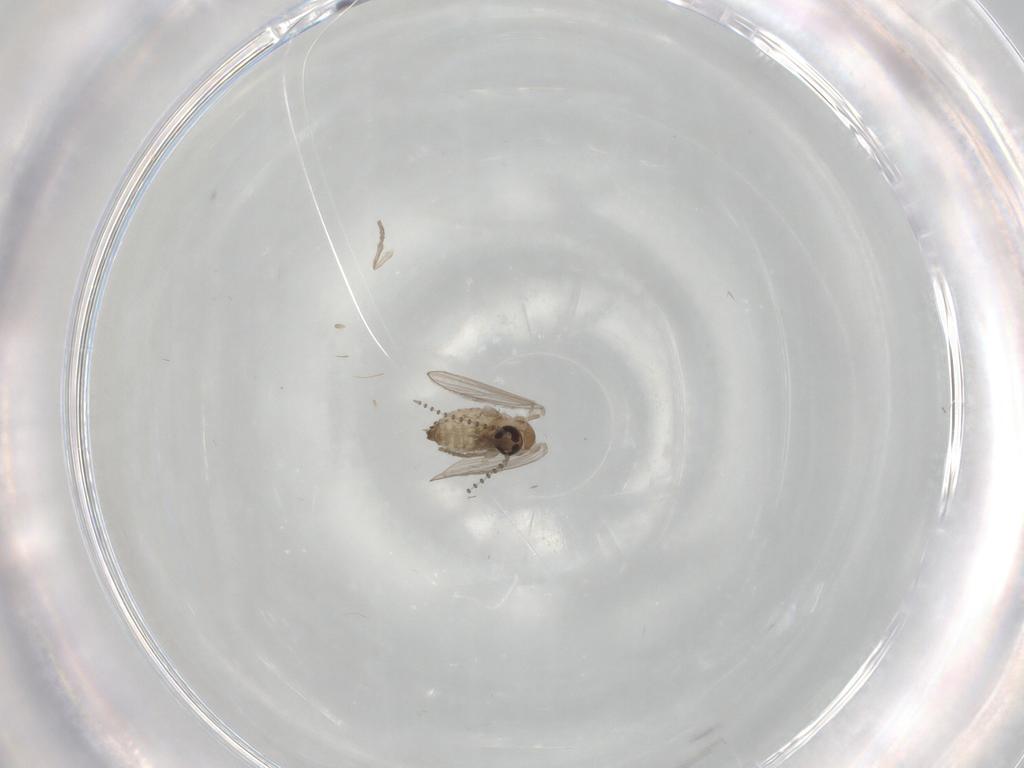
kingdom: Animalia
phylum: Arthropoda
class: Insecta
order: Diptera
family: Psychodidae
